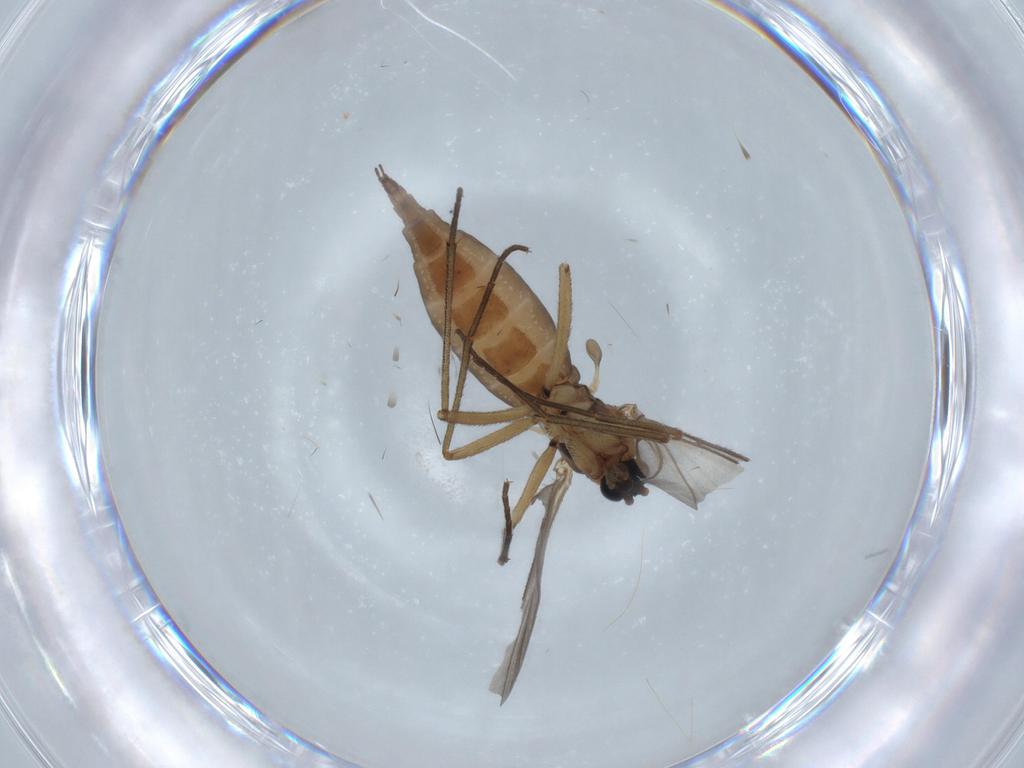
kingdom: Animalia
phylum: Arthropoda
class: Insecta
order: Diptera
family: Sciaridae
